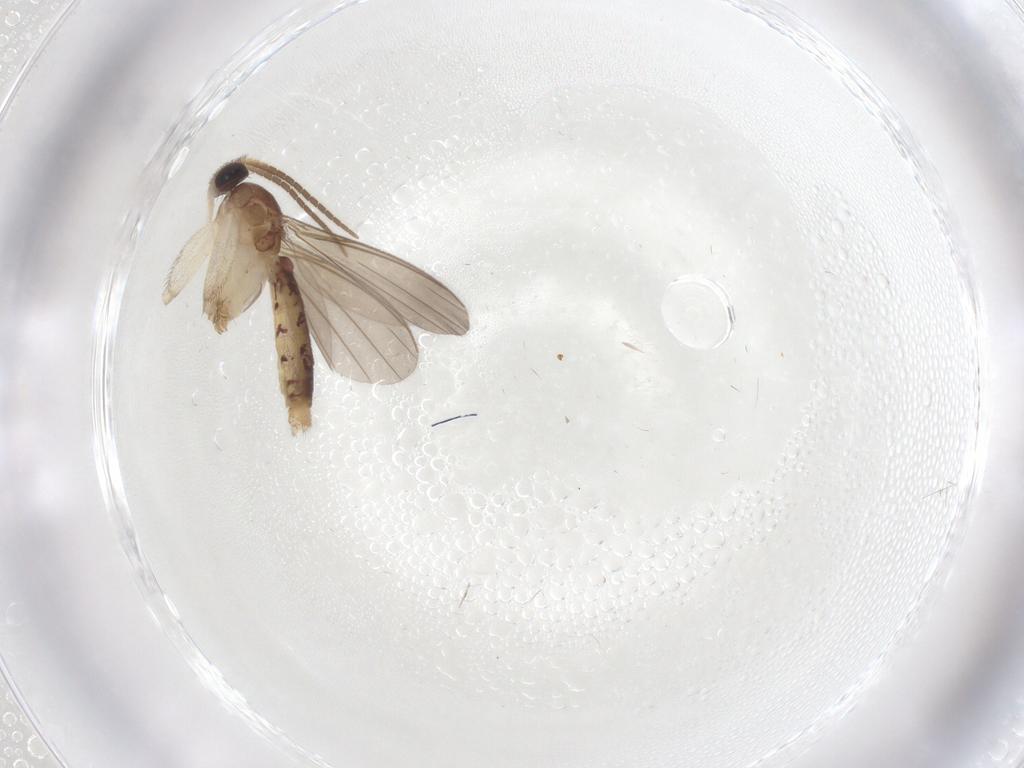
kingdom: Animalia
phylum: Arthropoda
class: Insecta
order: Diptera
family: Mycetophilidae
